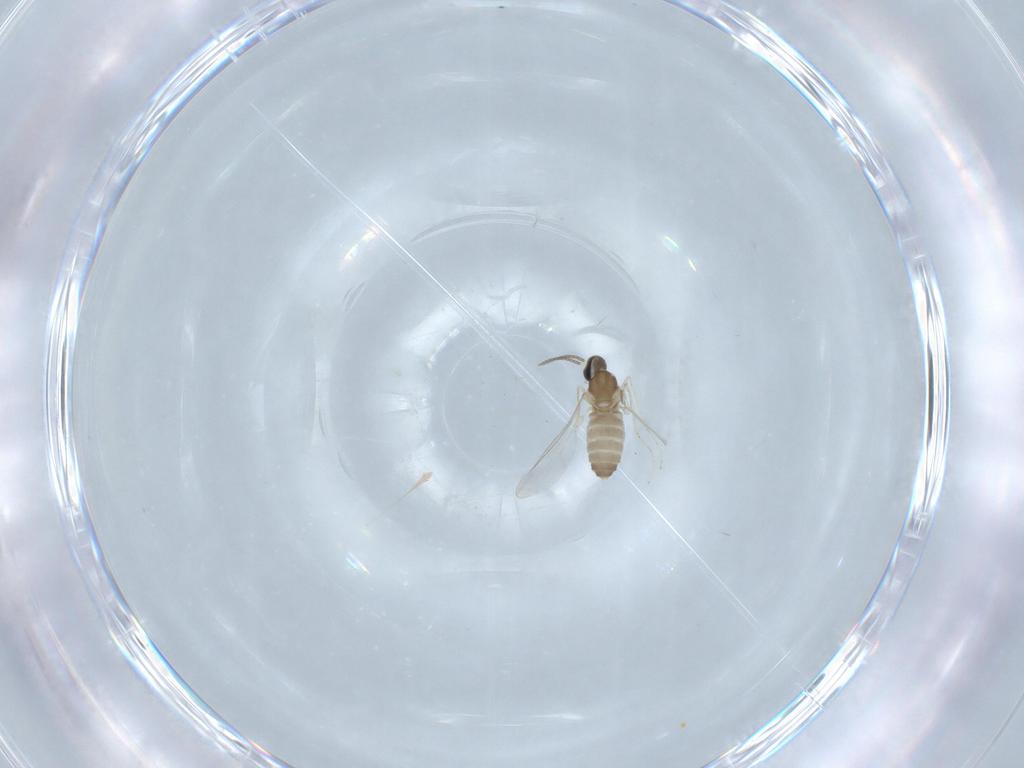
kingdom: Animalia
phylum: Arthropoda
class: Insecta
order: Diptera
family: Cecidomyiidae
